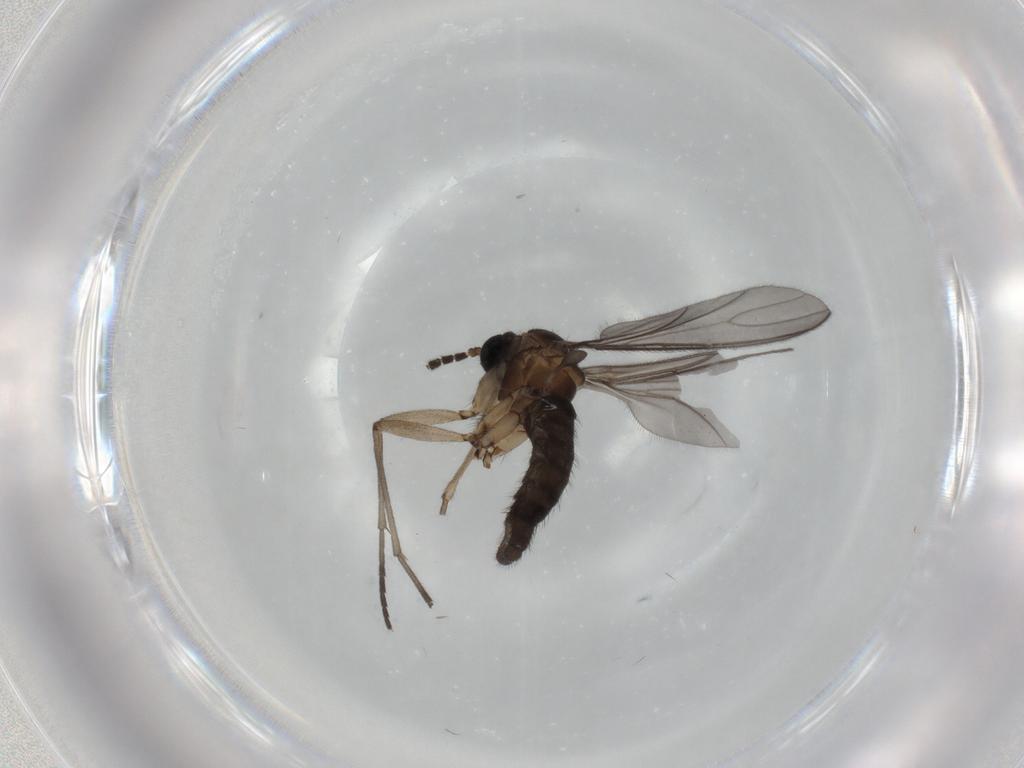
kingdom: Animalia
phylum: Arthropoda
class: Insecta
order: Diptera
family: Sciaridae
